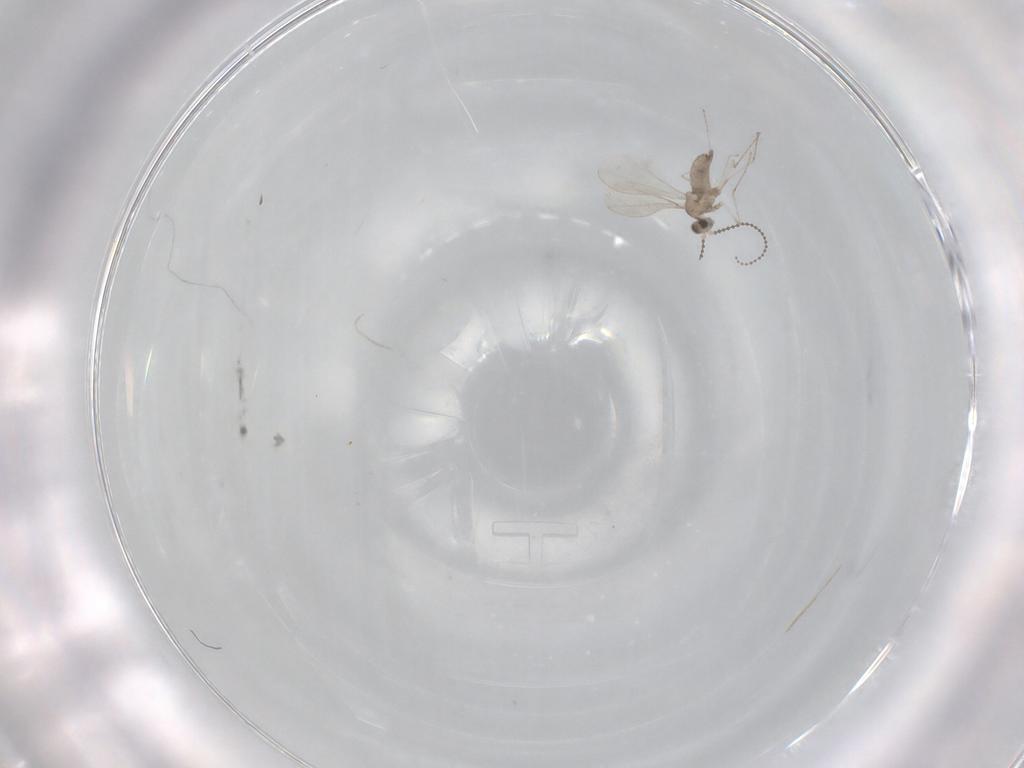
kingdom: Animalia
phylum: Arthropoda
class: Insecta
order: Diptera
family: Cecidomyiidae
